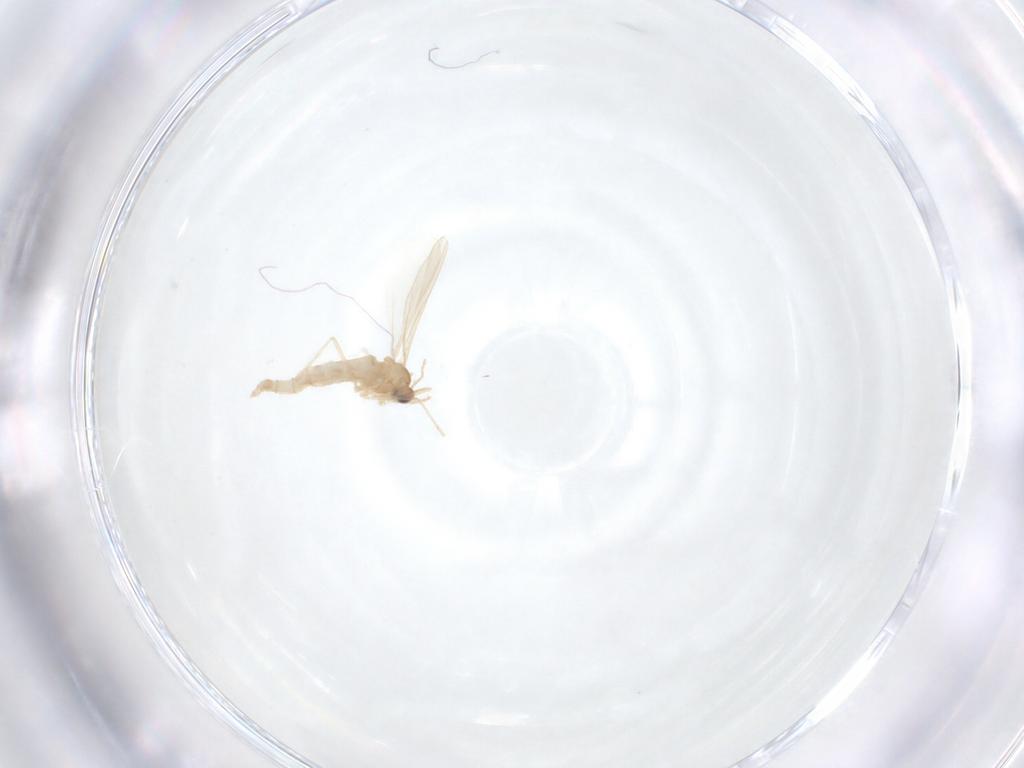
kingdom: Animalia
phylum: Arthropoda
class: Insecta
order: Diptera
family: Cecidomyiidae
